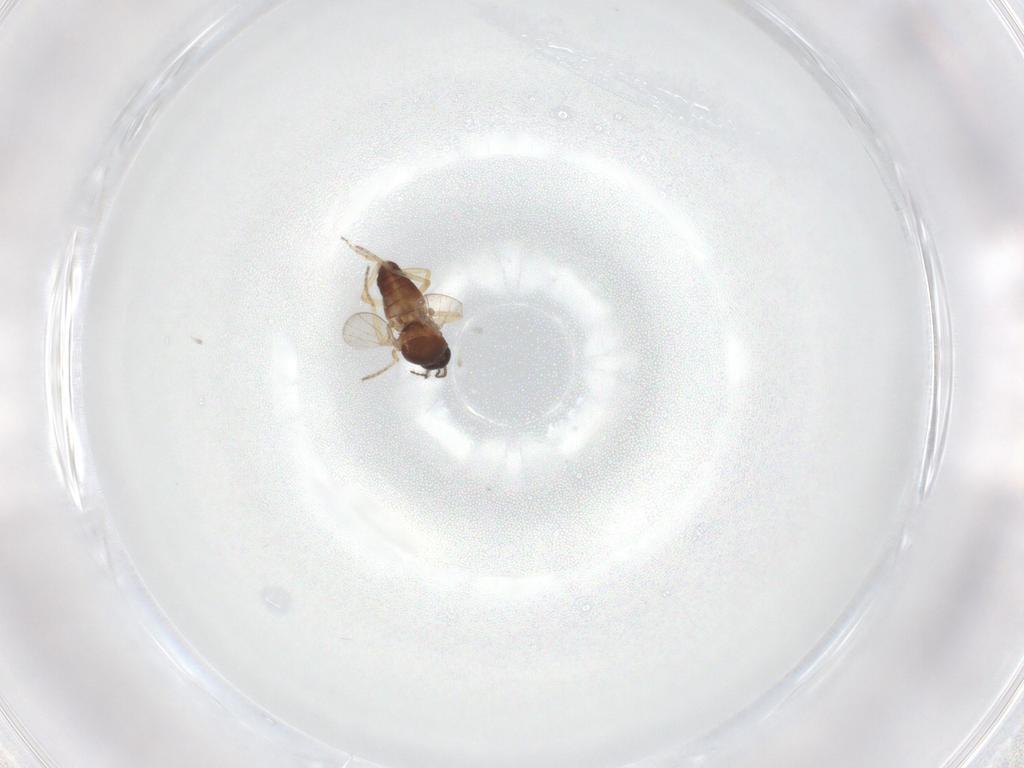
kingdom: Animalia
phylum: Arthropoda
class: Insecta
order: Diptera
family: Ceratopogonidae
